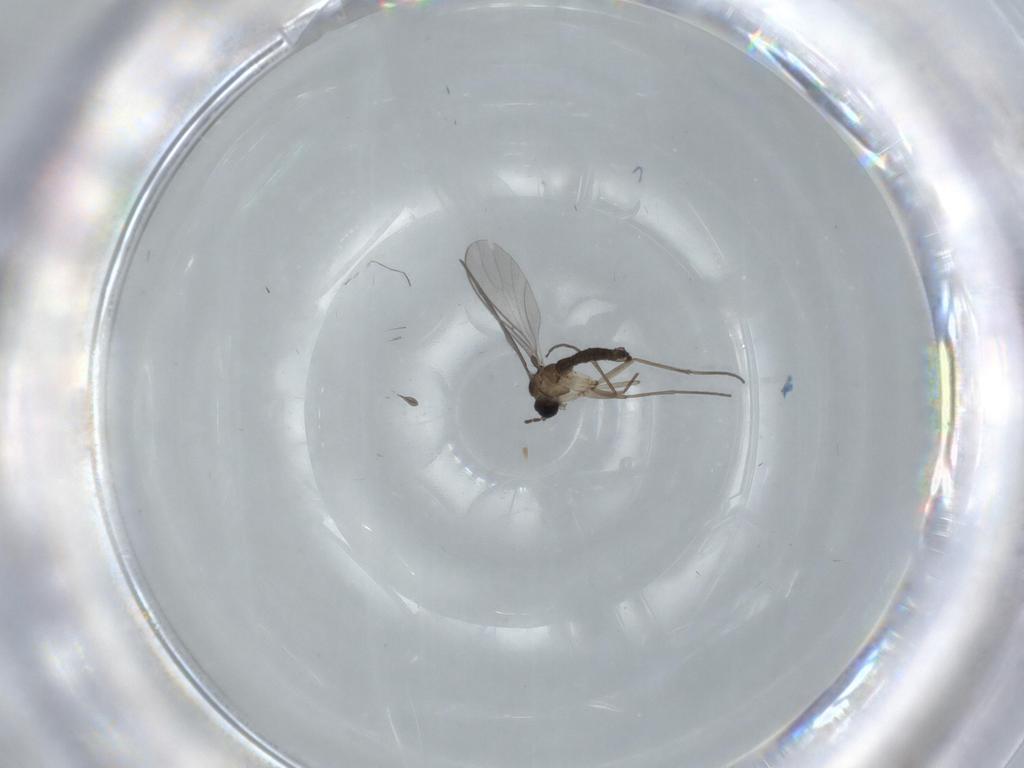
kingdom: Animalia
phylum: Arthropoda
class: Insecta
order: Diptera
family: Sciaridae
